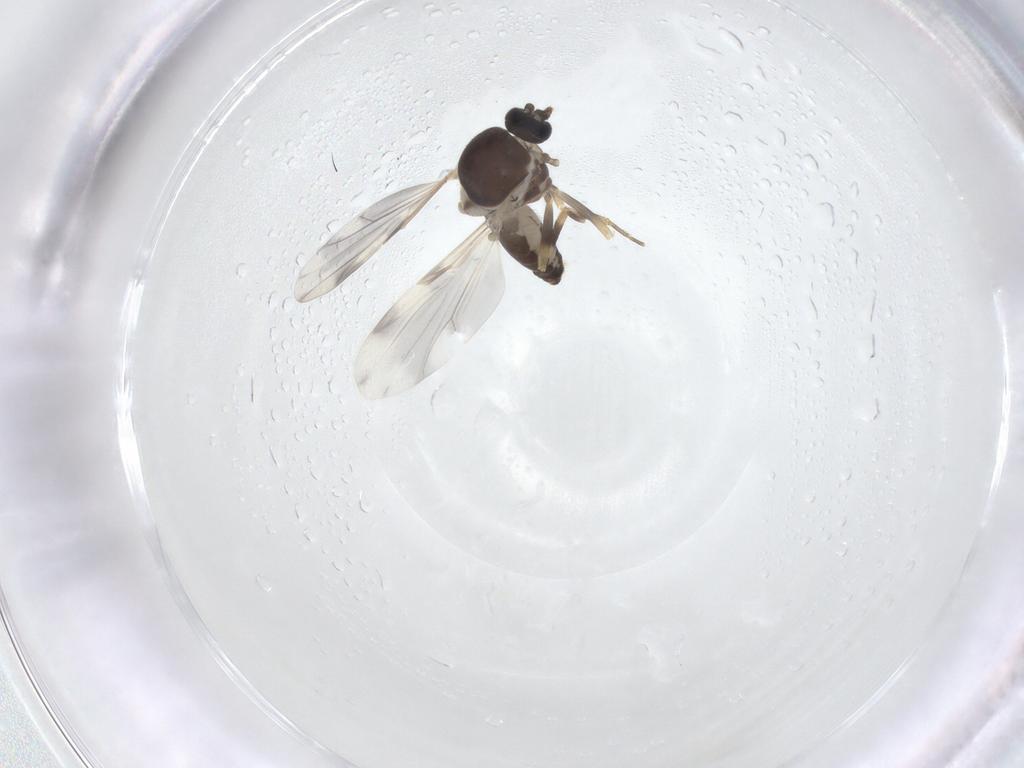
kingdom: Animalia
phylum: Arthropoda
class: Insecta
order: Diptera
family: Ceratopogonidae
